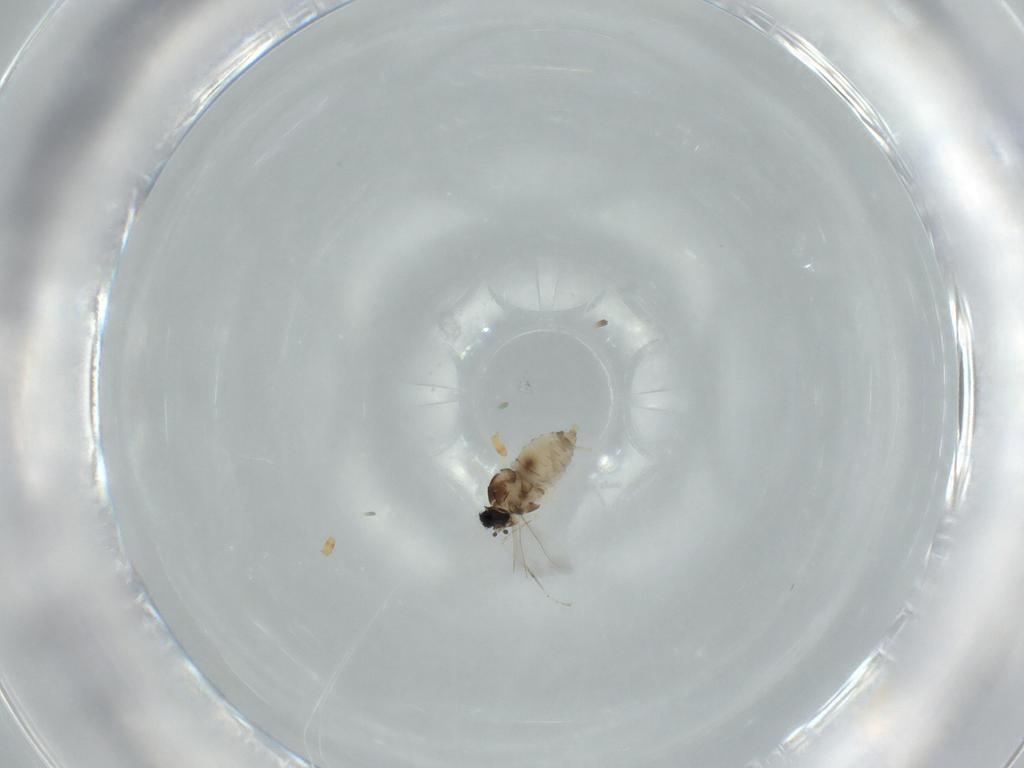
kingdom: Animalia
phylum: Arthropoda
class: Insecta
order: Diptera
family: Cecidomyiidae
